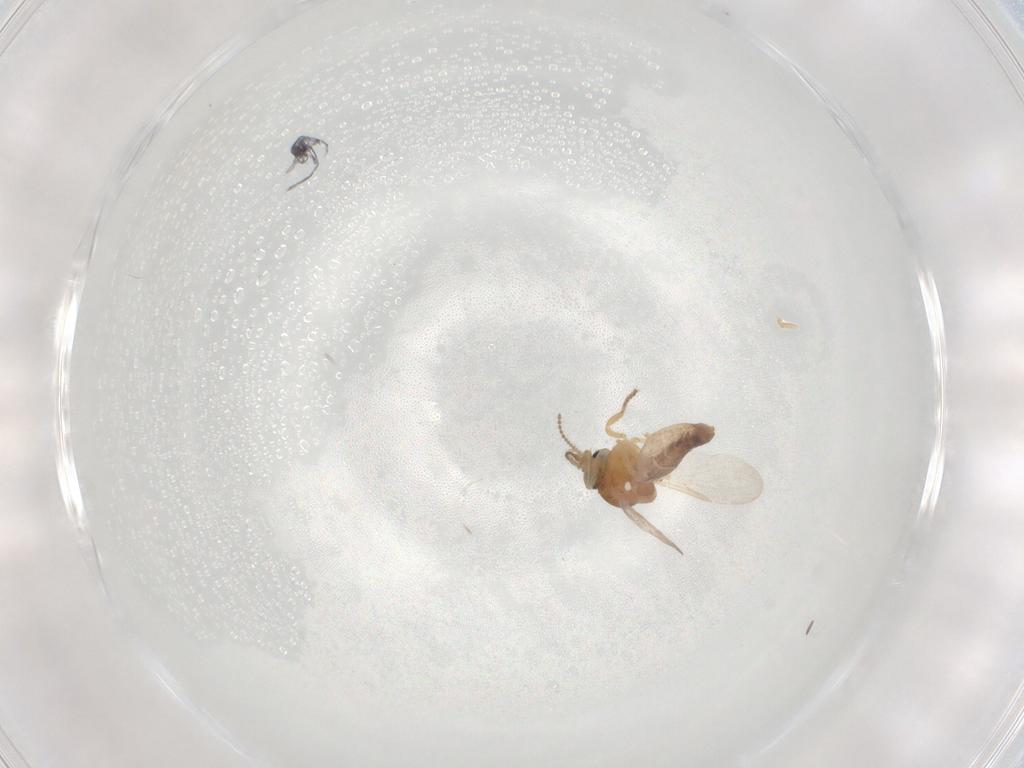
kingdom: Animalia
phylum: Arthropoda
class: Insecta
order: Diptera
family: Ceratopogonidae
